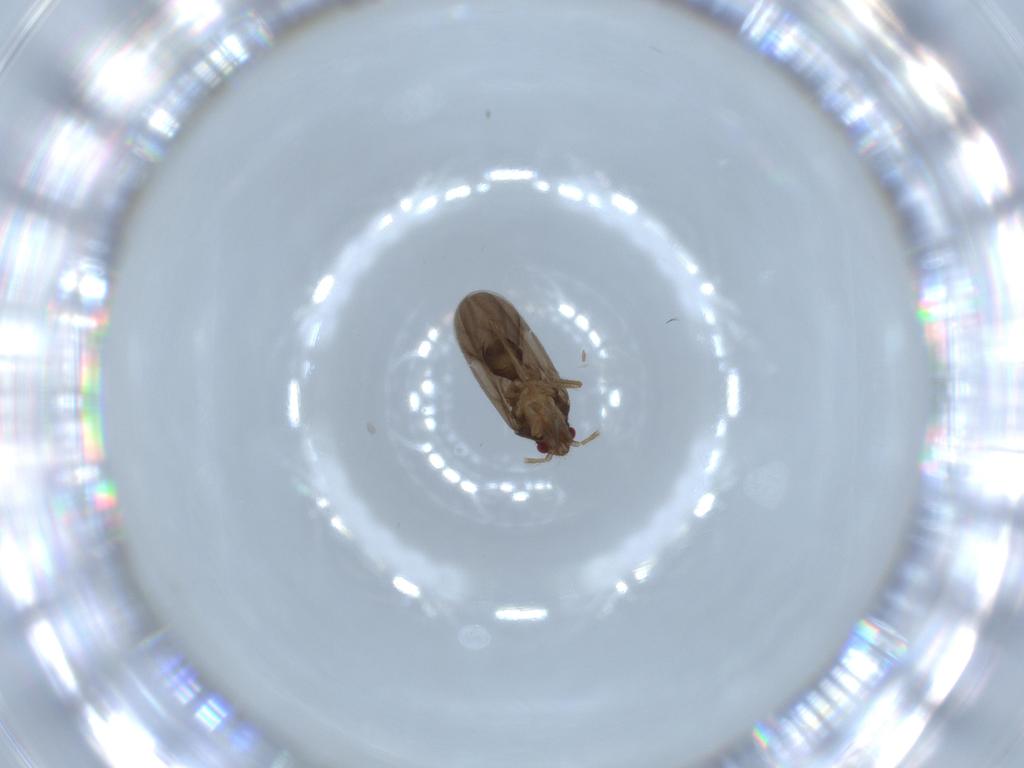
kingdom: Animalia
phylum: Arthropoda
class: Insecta
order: Hemiptera
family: Ceratocombidae
